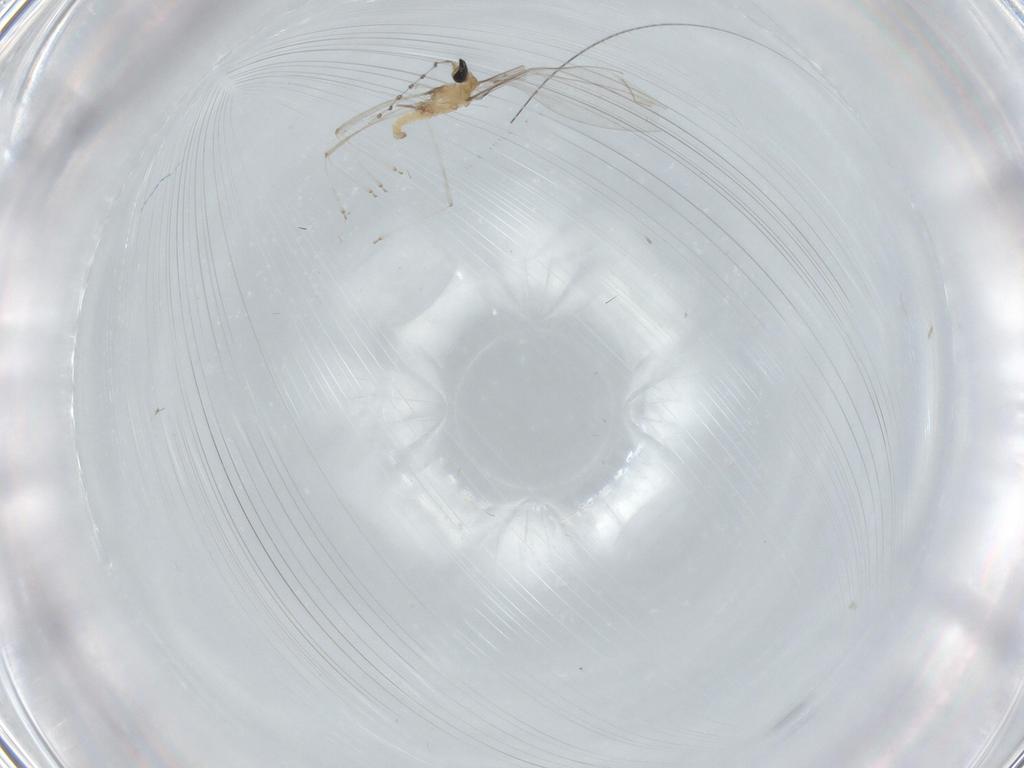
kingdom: Animalia
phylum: Arthropoda
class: Insecta
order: Diptera
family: Cecidomyiidae
